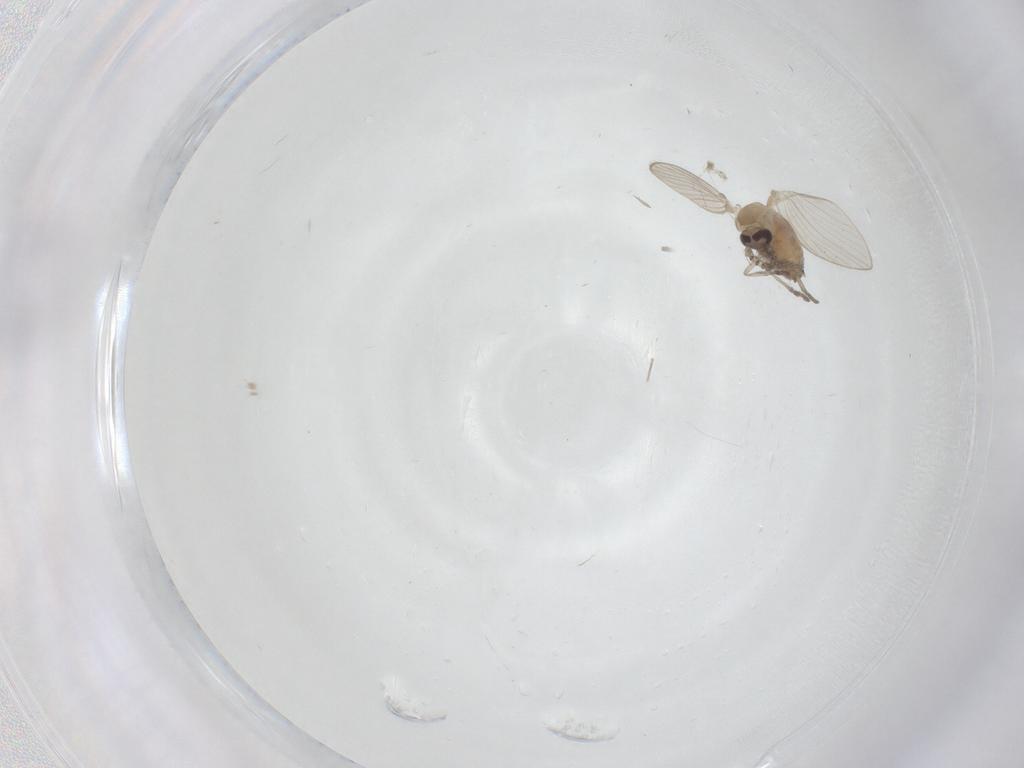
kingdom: Animalia
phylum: Arthropoda
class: Insecta
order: Diptera
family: Psychodidae
